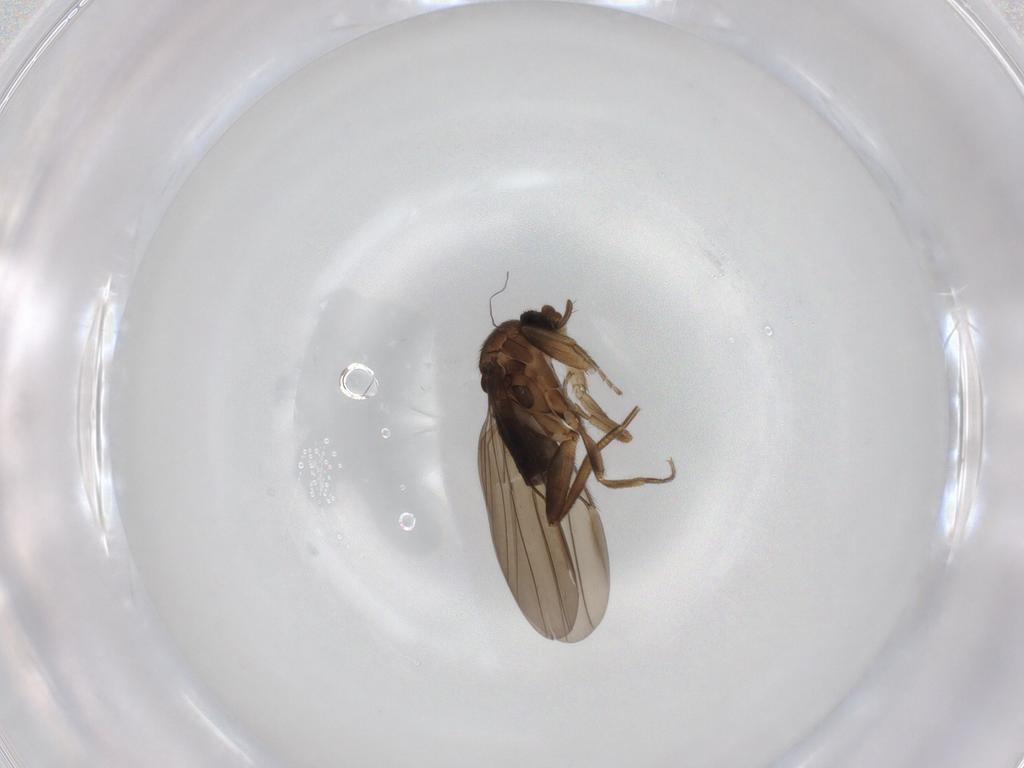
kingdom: Animalia
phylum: Arthropoda
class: Insecta
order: Diptera
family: Phoridae
